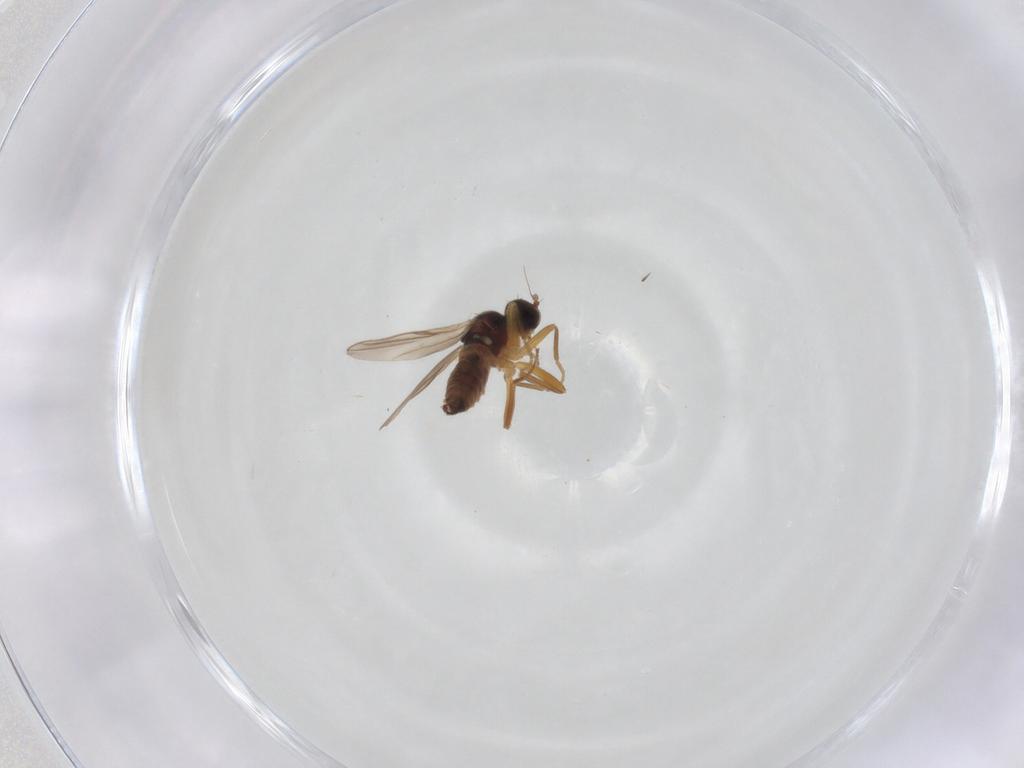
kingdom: Animalia
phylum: Arthropoda
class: Insecta
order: Diptera
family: Hybotidae
